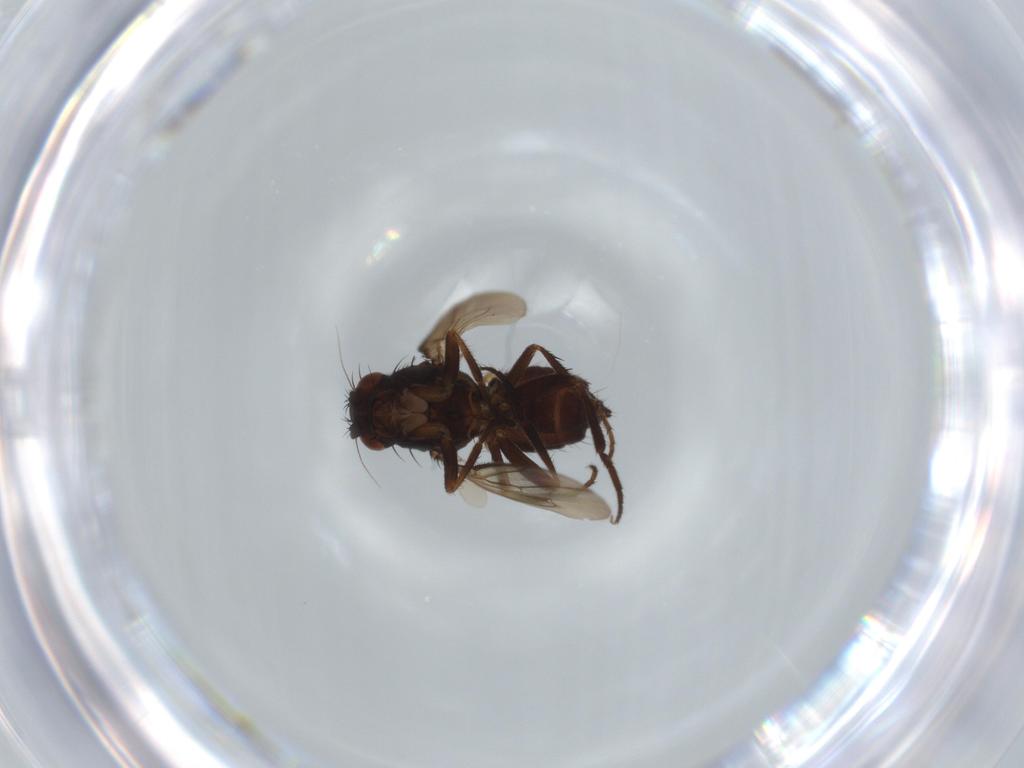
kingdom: Animalia
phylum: Arthropoda
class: Insecta
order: Diptera
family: Sphaeroceridae
